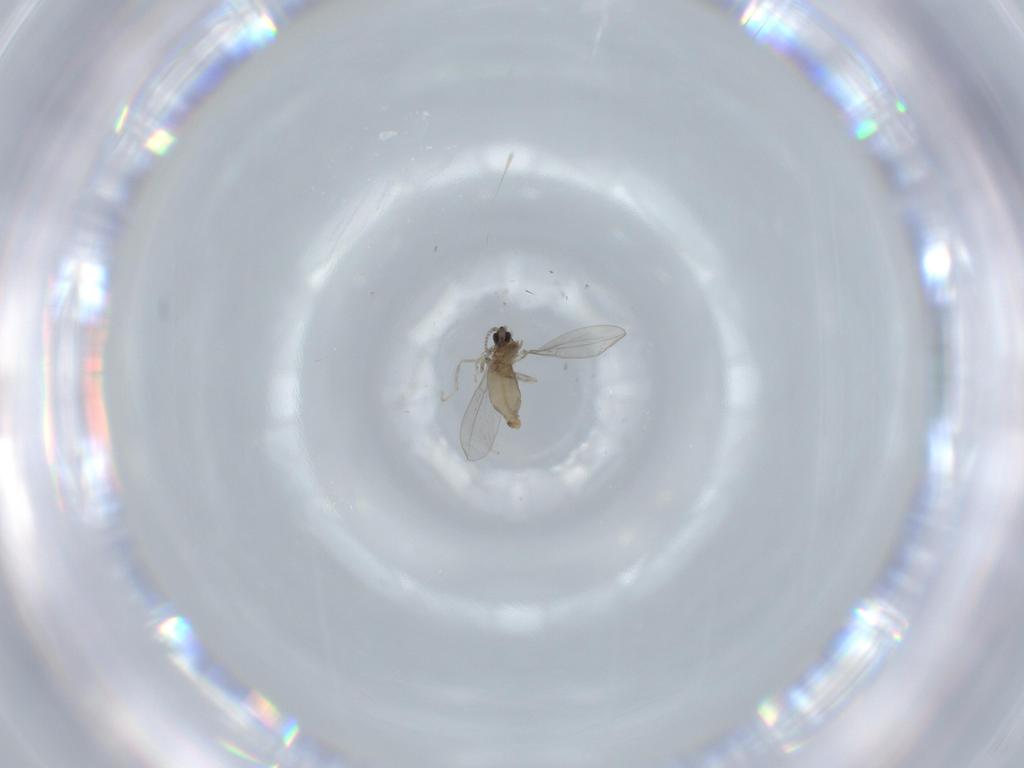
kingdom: Animalia
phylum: Arthropoda
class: Insecta
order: Diptera
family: Cecidomyiidae
